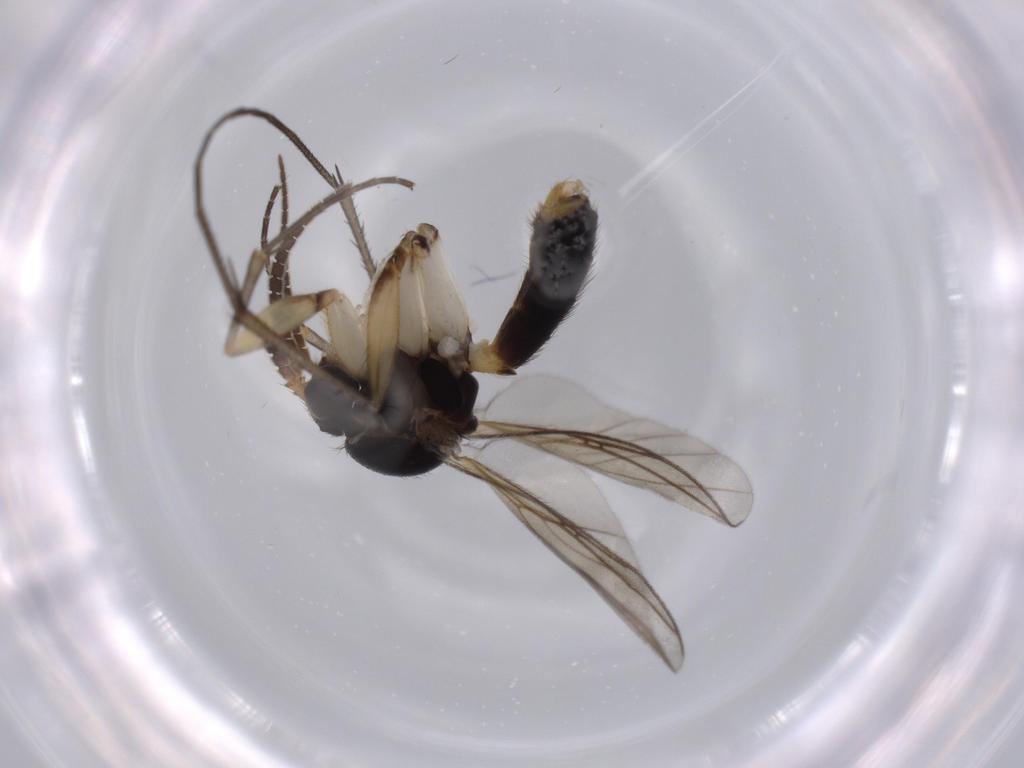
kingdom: Animalia
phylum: Arthropoda
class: Insecta
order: Diptera
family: Cecidomyiidae
